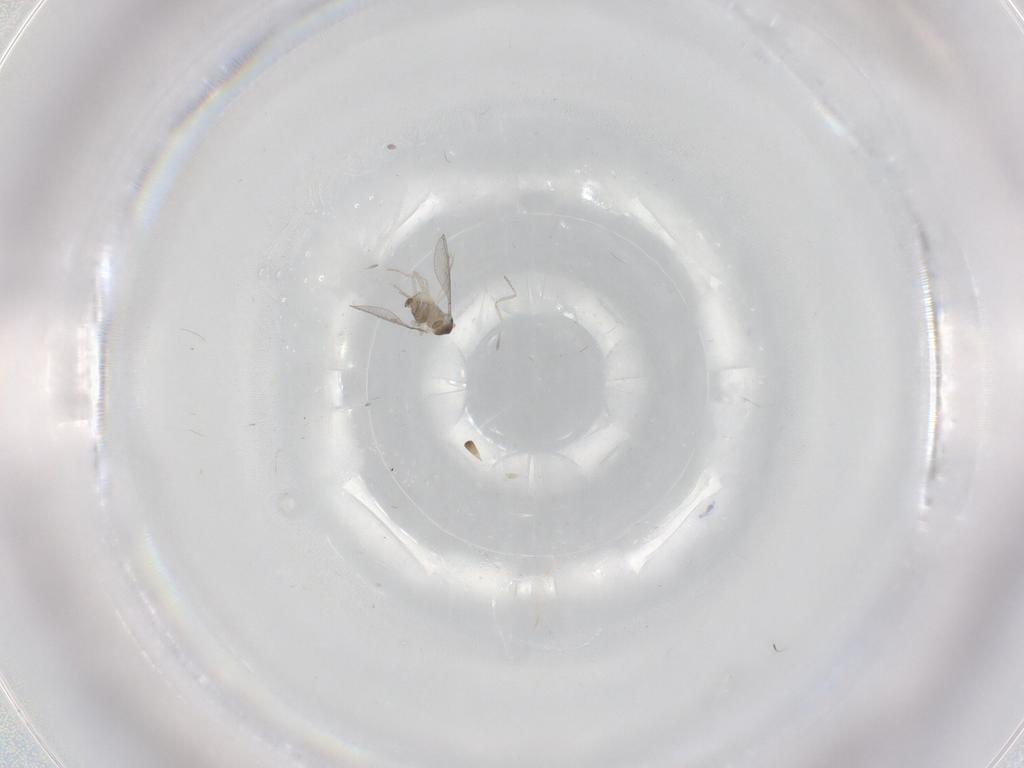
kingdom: Animalia
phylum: Arthropoda
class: Insecta
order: Diptera
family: Cecidomyiidae
